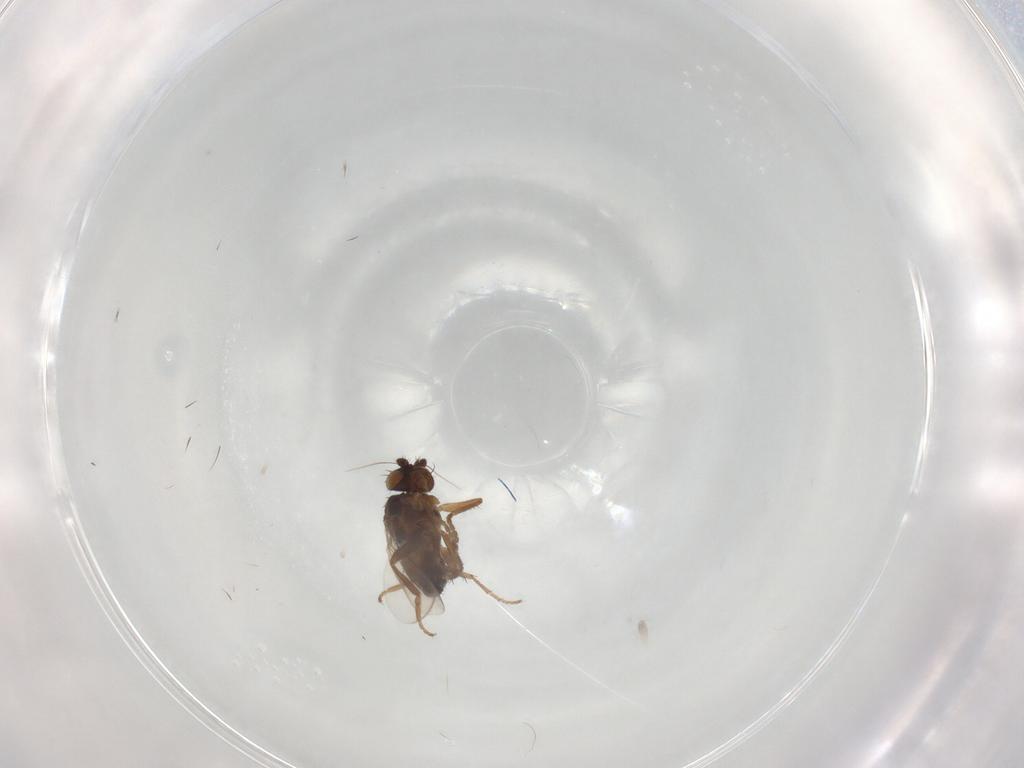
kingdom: Animalia
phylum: Arthropoda
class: Insecta
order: Diptera
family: Sphaeroceridae
